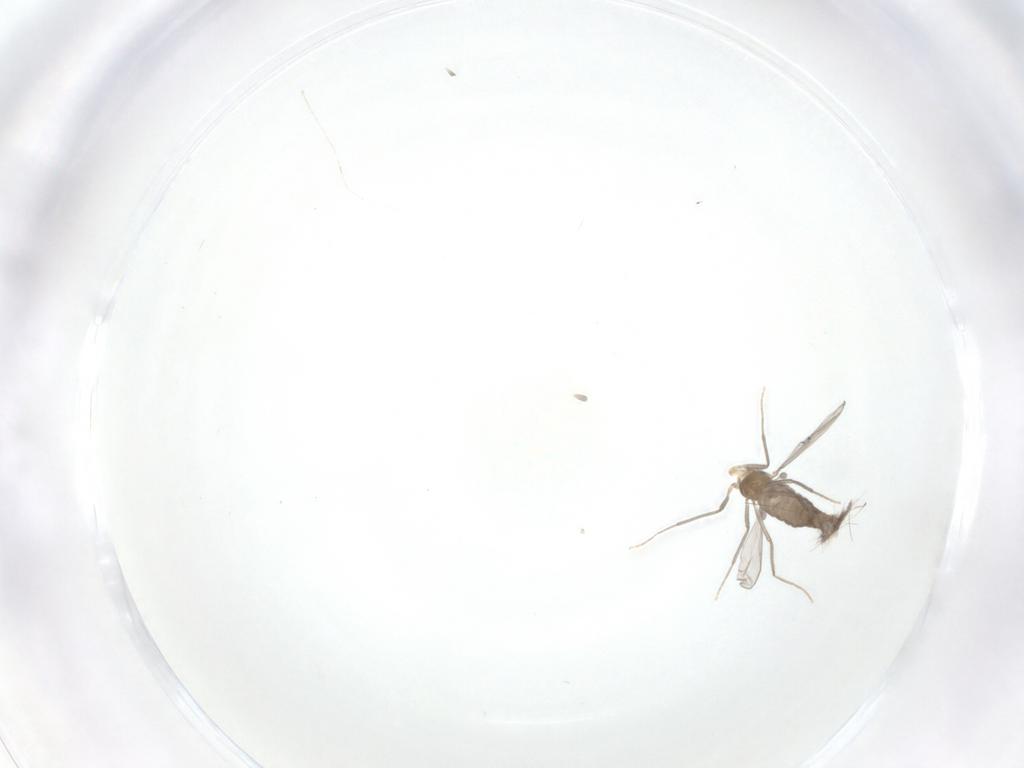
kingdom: Animalia
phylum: Arthropoda
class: Insecta
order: Diptera
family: Chironomidae
